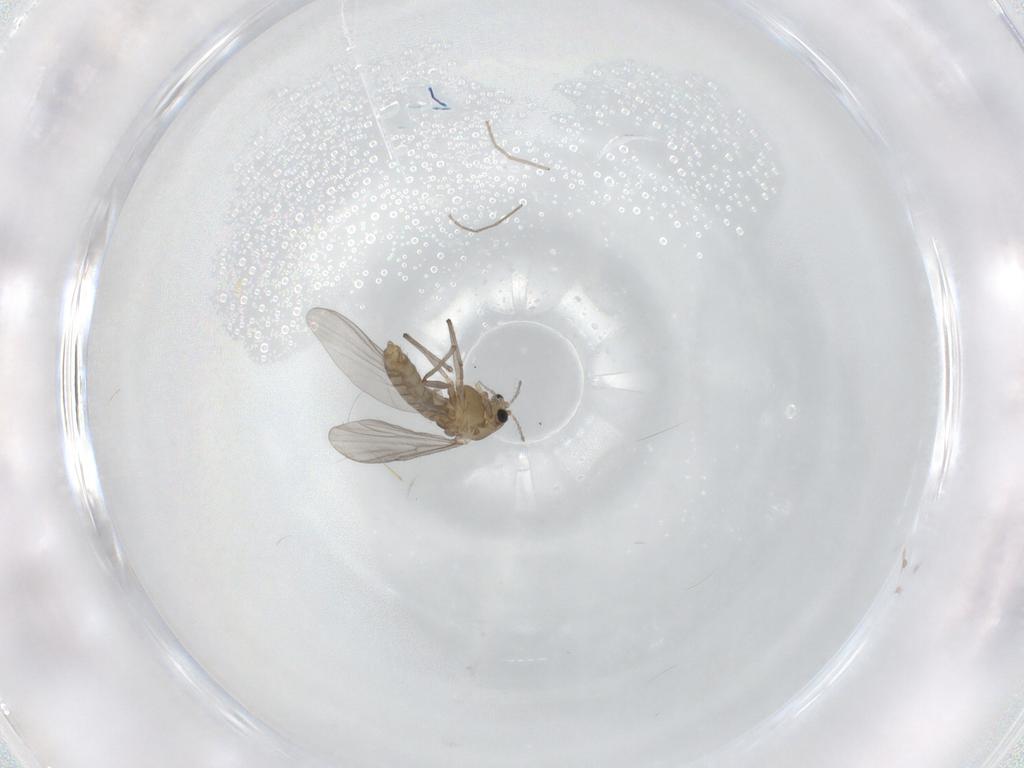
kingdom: Animalia
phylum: Arthropoda
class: Insecta
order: Diptera
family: Chironomidae
